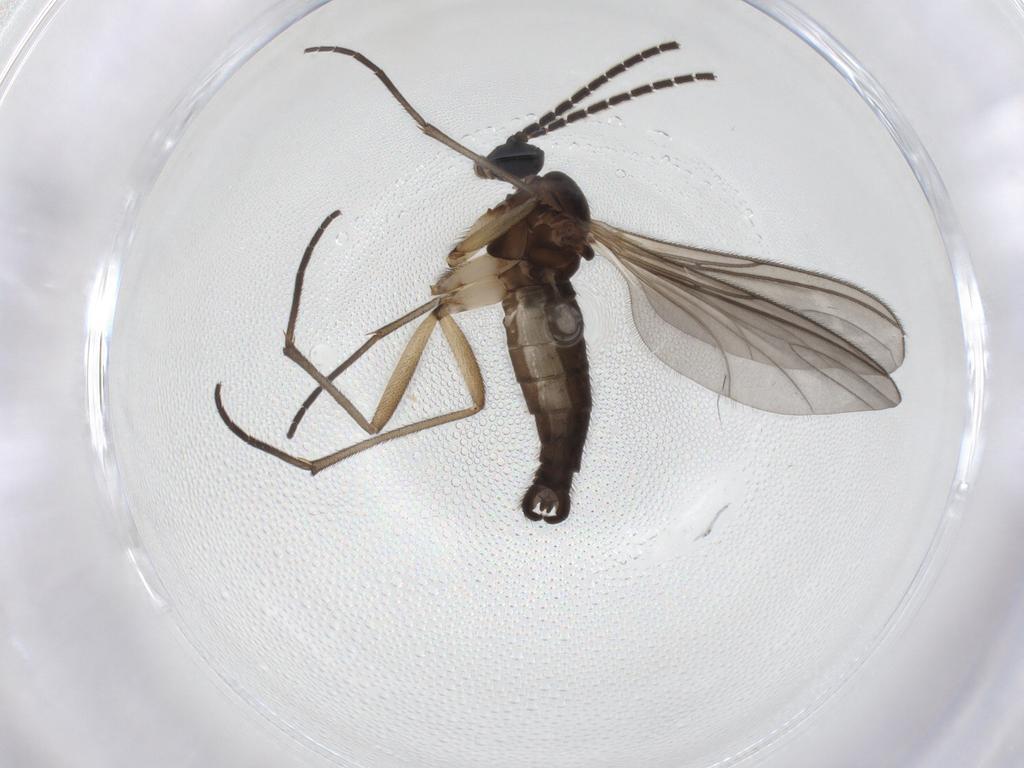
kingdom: Animalia
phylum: Arthropoda
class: Insecta
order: Diptera
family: Sciaridae
